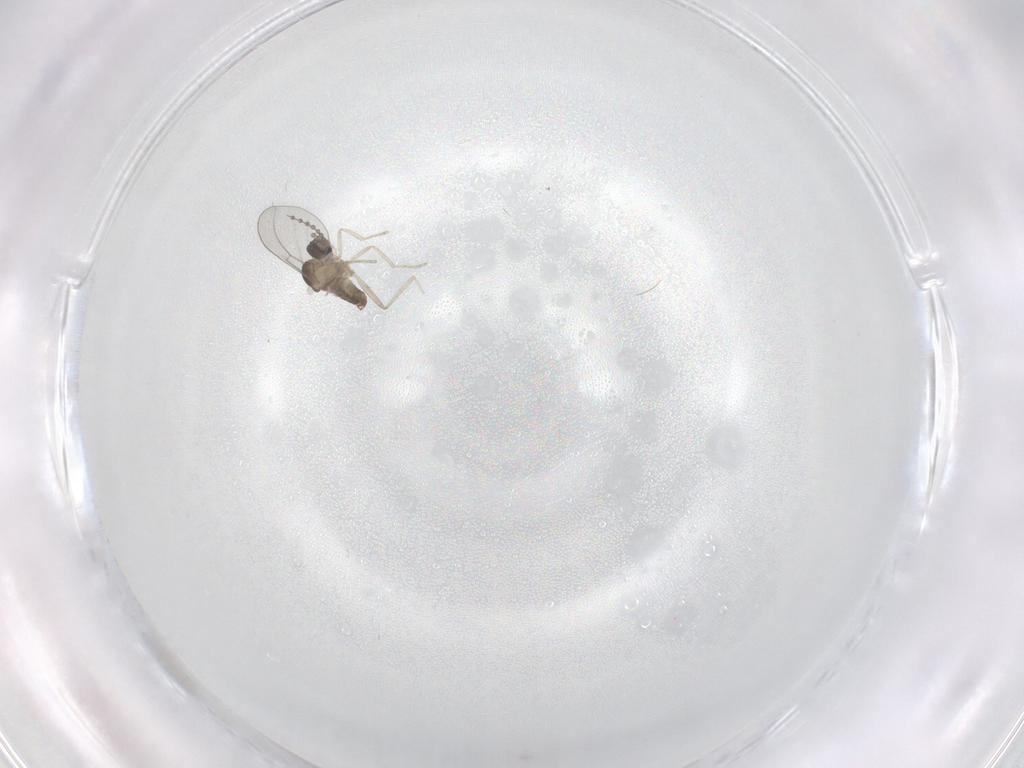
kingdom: Animalia
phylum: Arthropoda
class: Insecta
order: Diptera
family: Cecidomyiidae
